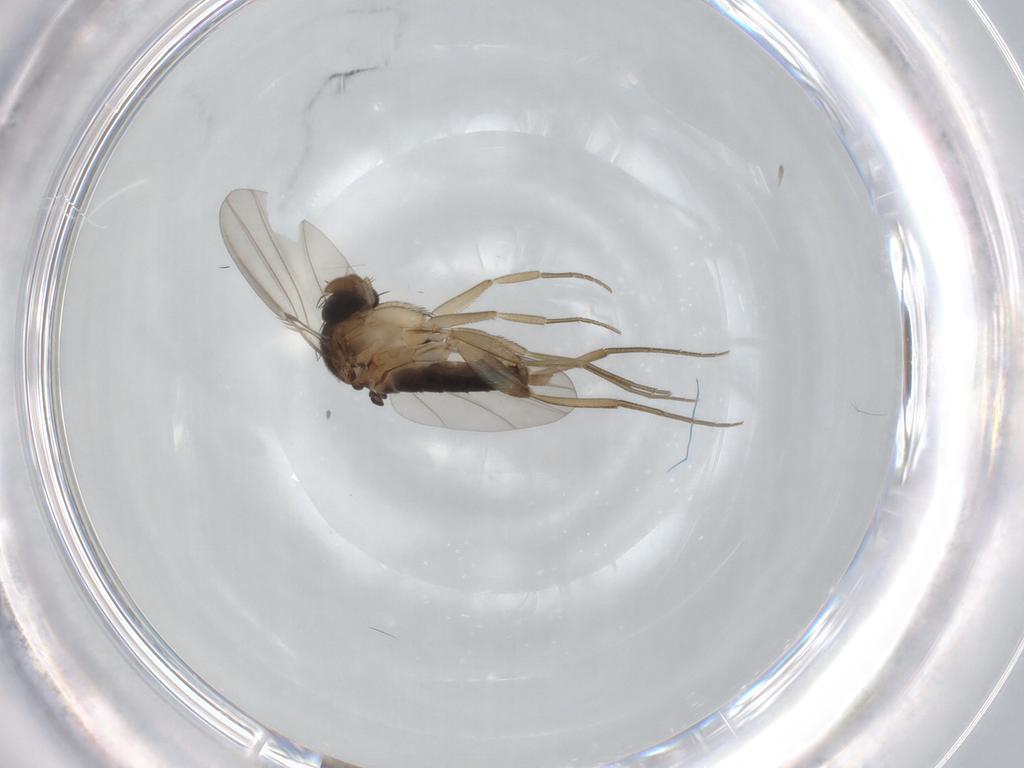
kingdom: Animalia
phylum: Arthropoda
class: Insecta
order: Diptera
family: Phoridae
